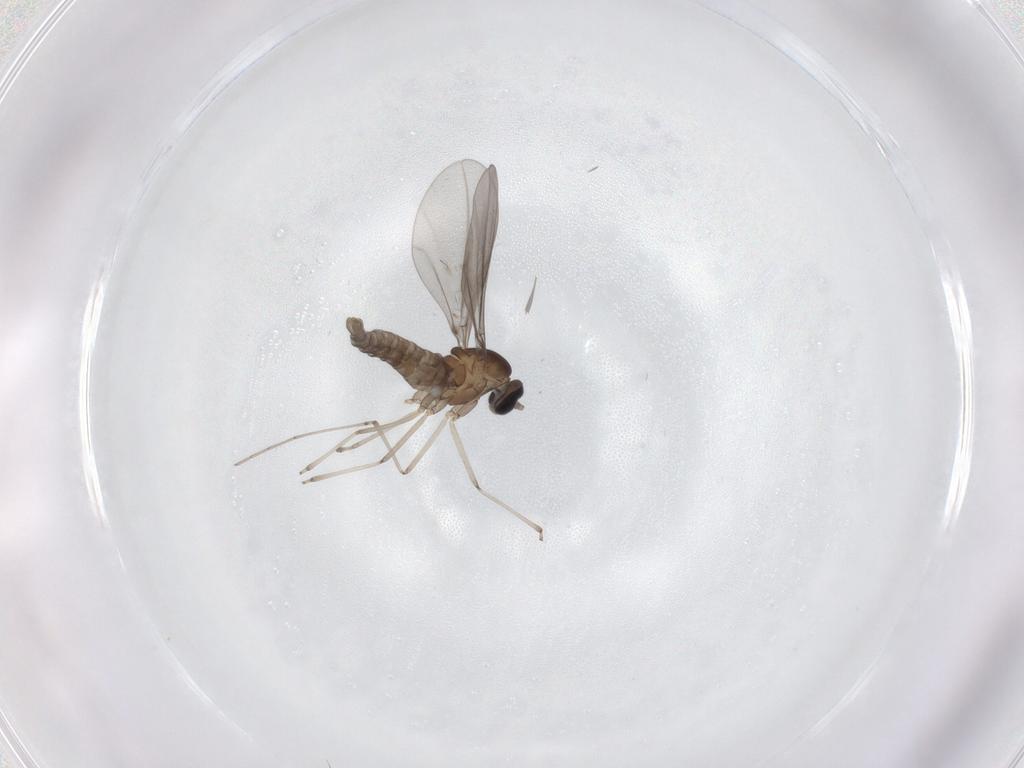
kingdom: Animalia
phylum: Arthropoda
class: Insecta
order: Diptera
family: Cecidomyiidae
